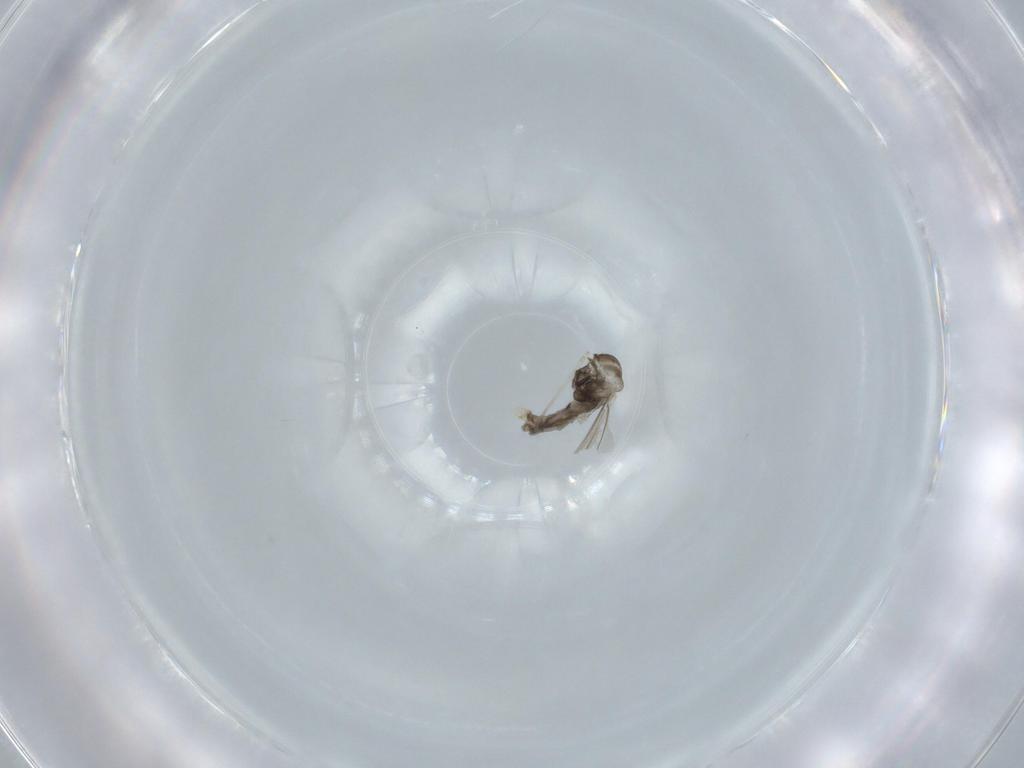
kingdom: Animalia
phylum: Arthropoda
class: Insecta
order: Diptera
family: Cecidomyiidae
